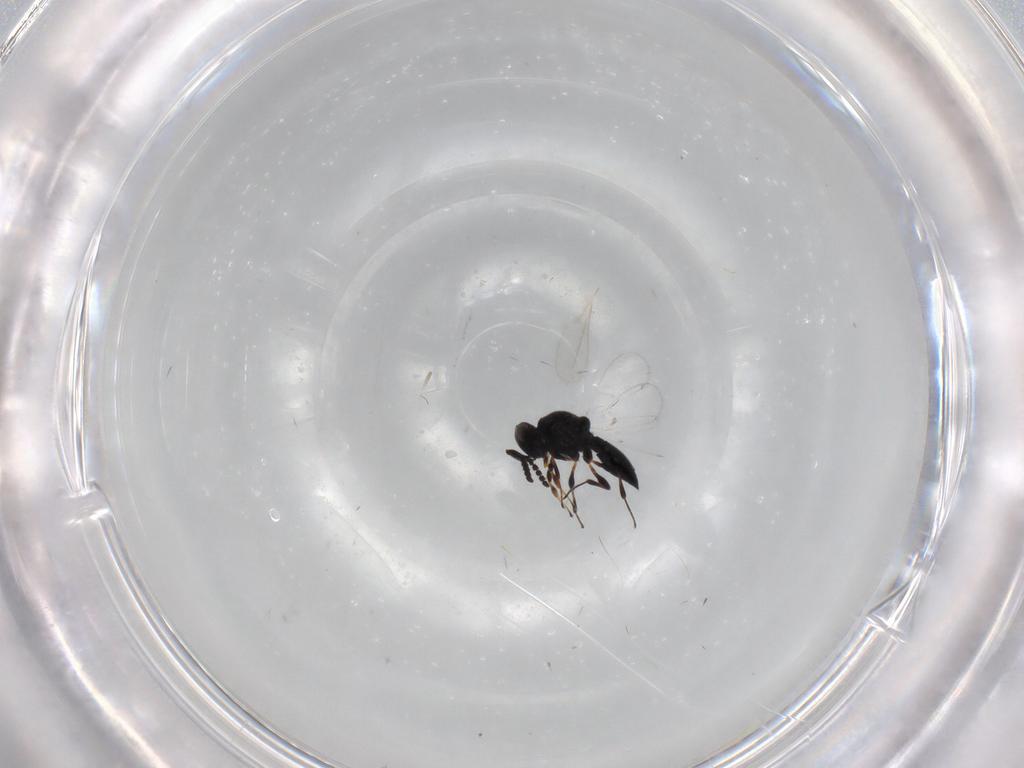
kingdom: Animalia
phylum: Arthropoda
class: Insecta
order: Hymenoptera
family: Platygastridae
